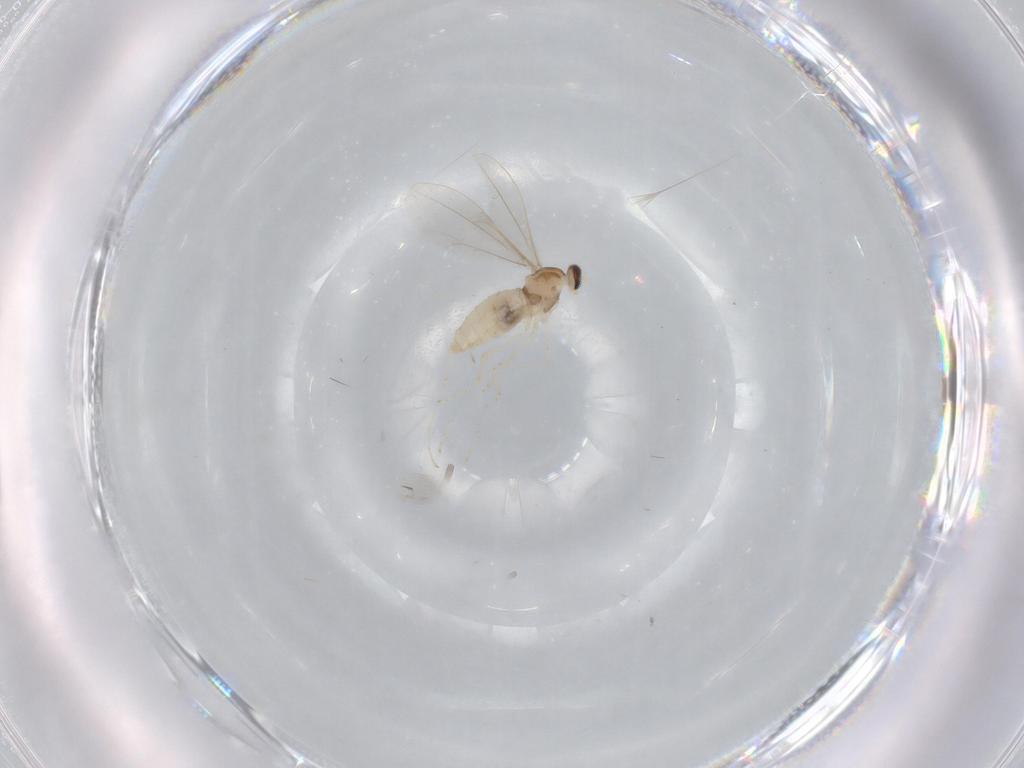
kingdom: Animalia
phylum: Arthropoda
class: Insecta
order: Diptera
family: Cecidomyiidae
